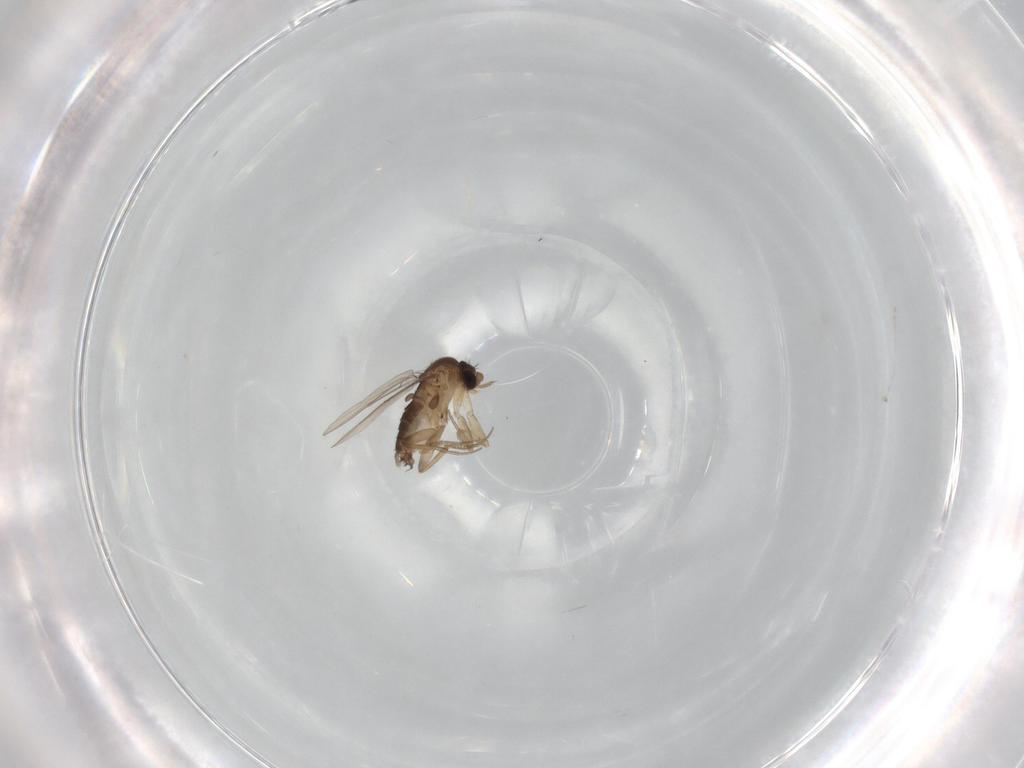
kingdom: Animalia
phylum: Arthropoda
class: Insecta
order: Diptera
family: Phoridae
